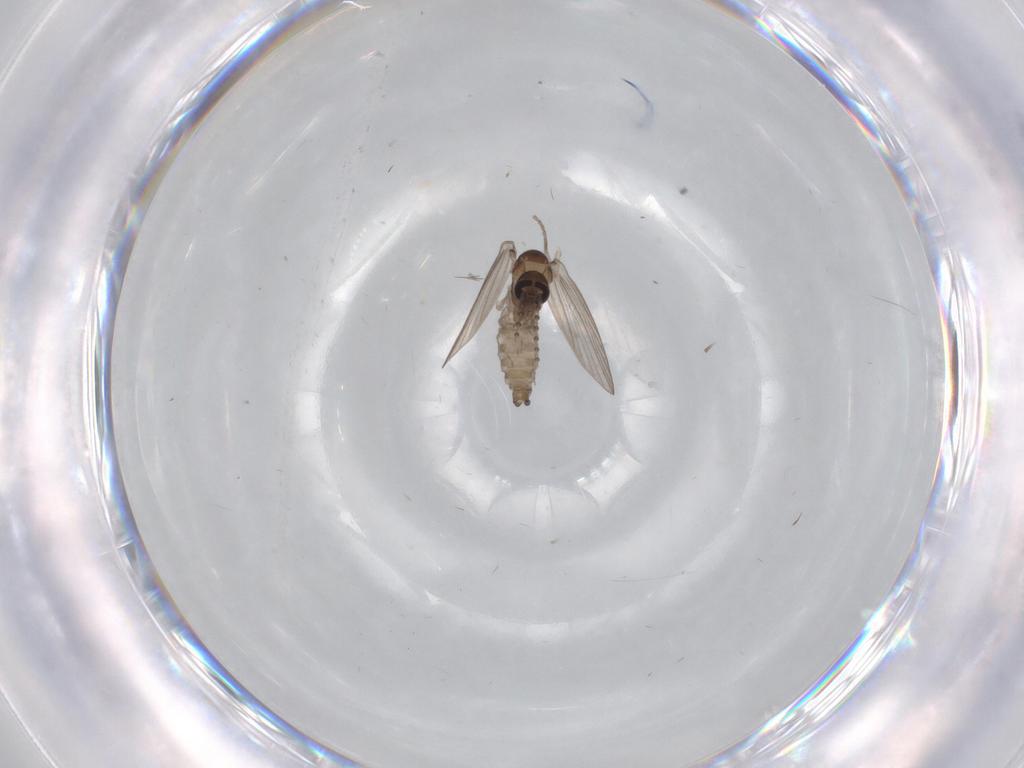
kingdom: Animalia
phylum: Arthropoda
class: Insecta
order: Diptera
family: Psychodidae
